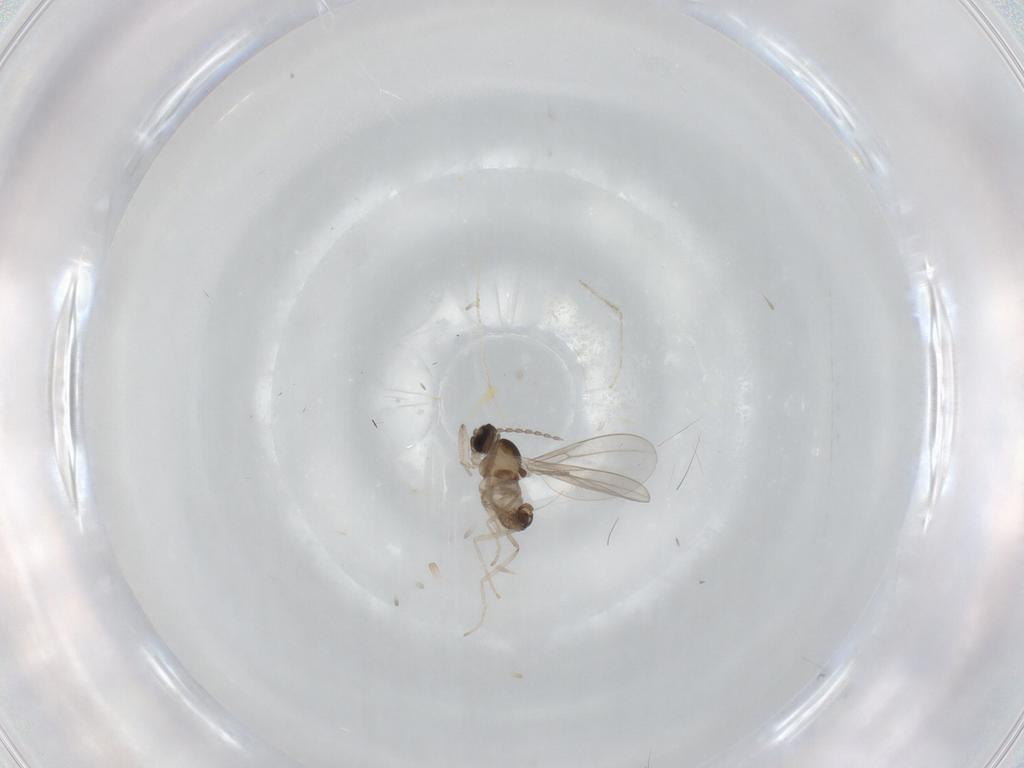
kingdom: Animalia
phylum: Arthropoda
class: Insecta
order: Diptera
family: Cecidomyiidae
